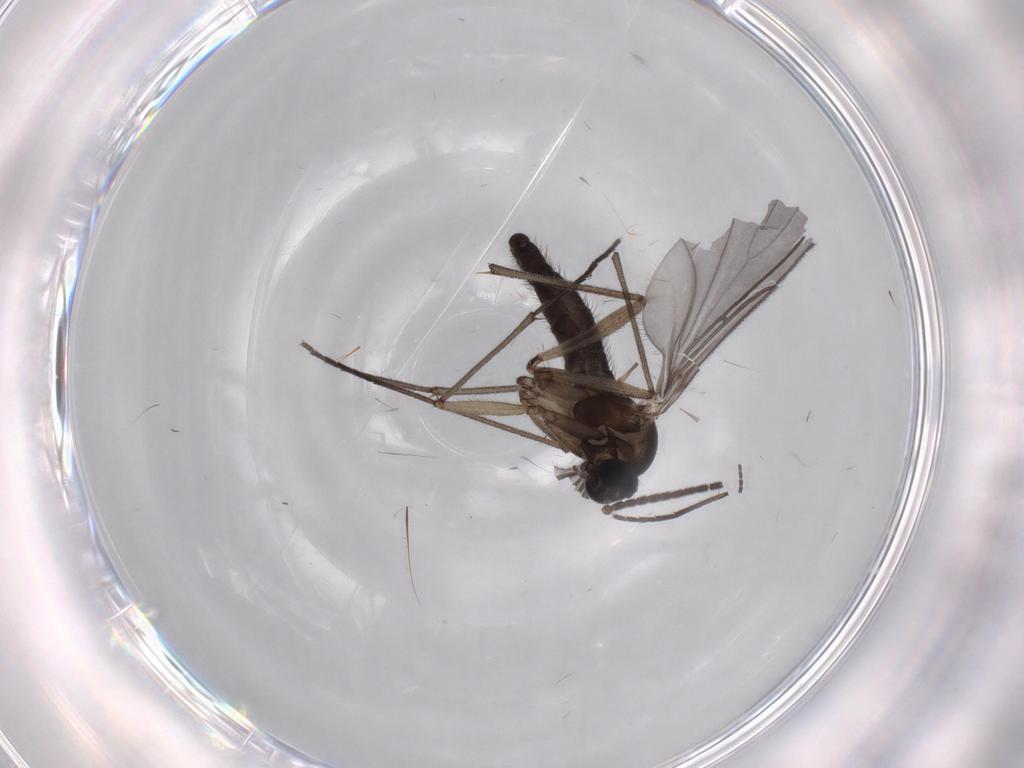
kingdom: Animalia
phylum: Arthropoda
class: Insecta
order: Diptera
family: Sciaridae
